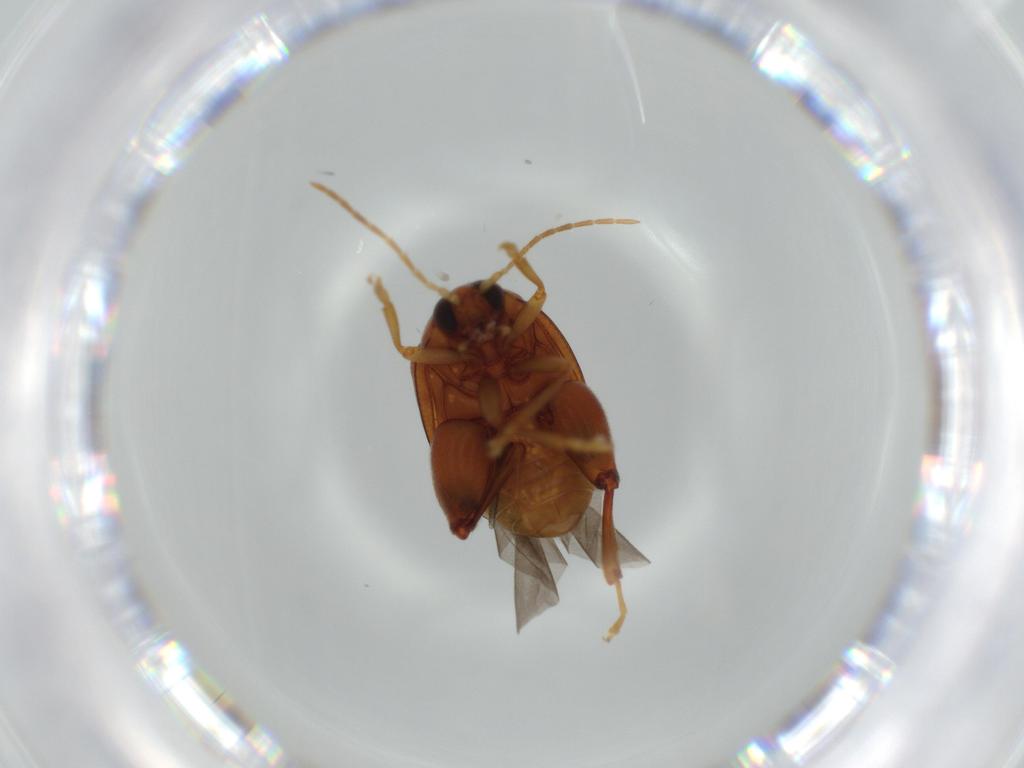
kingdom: Animalia
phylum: Arthropoda
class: Insecta
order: Coleoptera
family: Chrysomelidae
